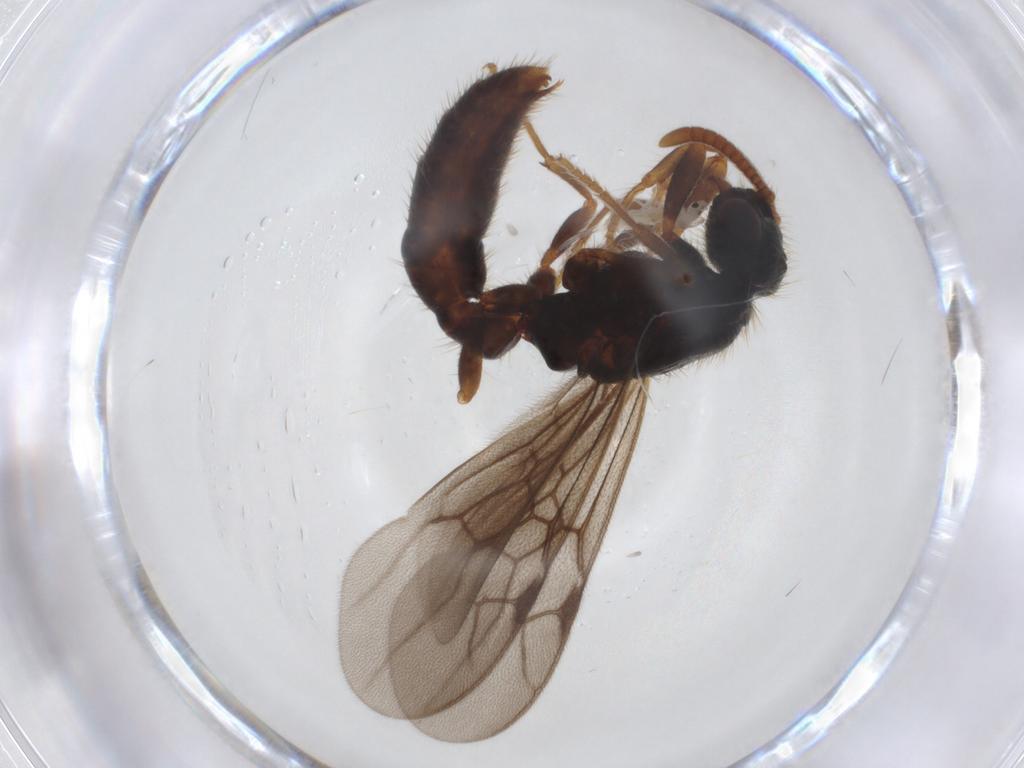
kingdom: Animalia
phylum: Arthropoda
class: Insecta
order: Hymenoptera
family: Formicidae
